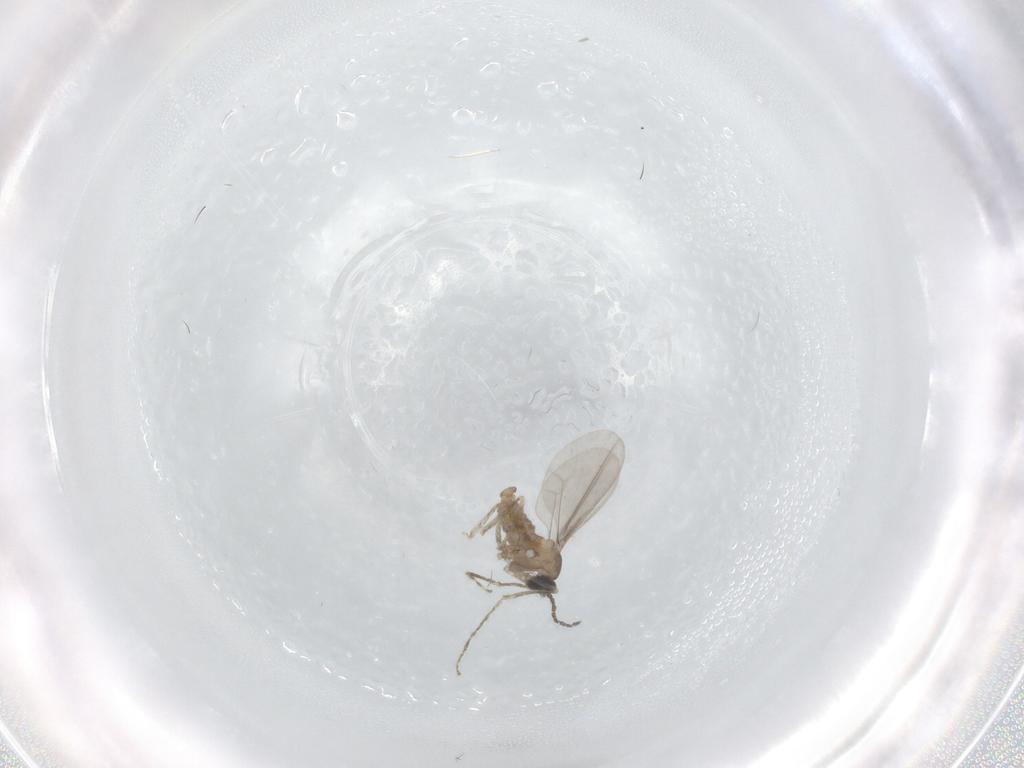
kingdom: Animalia
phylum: Arthropoda
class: Insecta
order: Diptera
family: Cecidomyiidae
